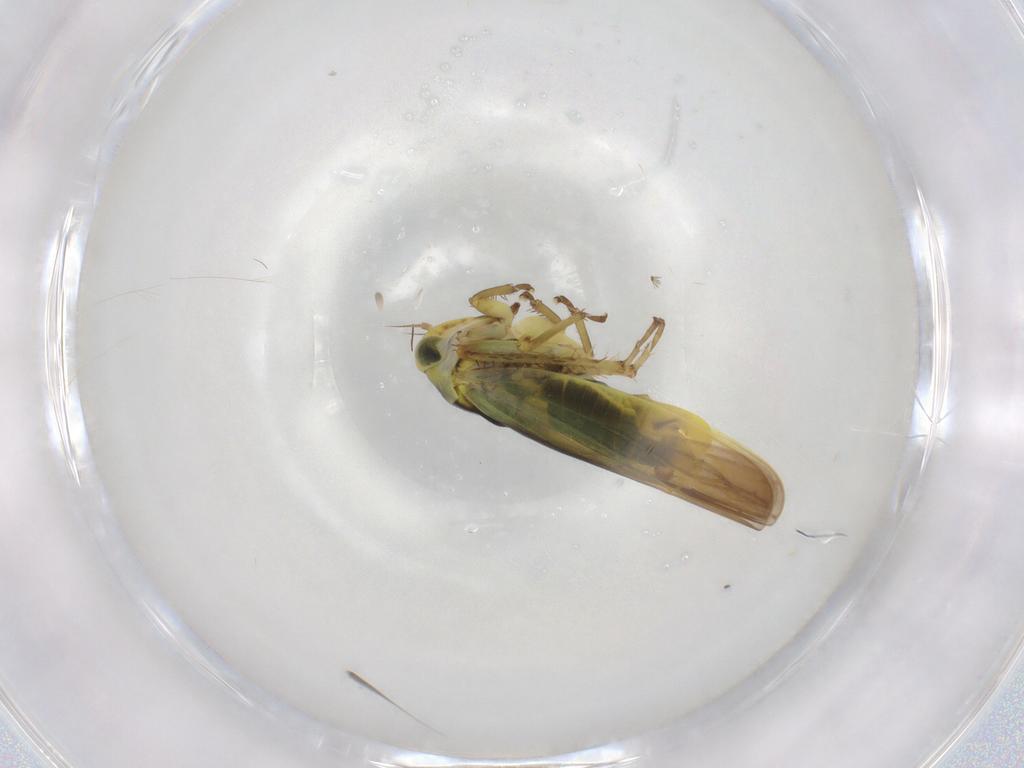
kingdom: Animalia
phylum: Arthropoda
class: Insecta
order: Hemiptera
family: Cicadellidae
